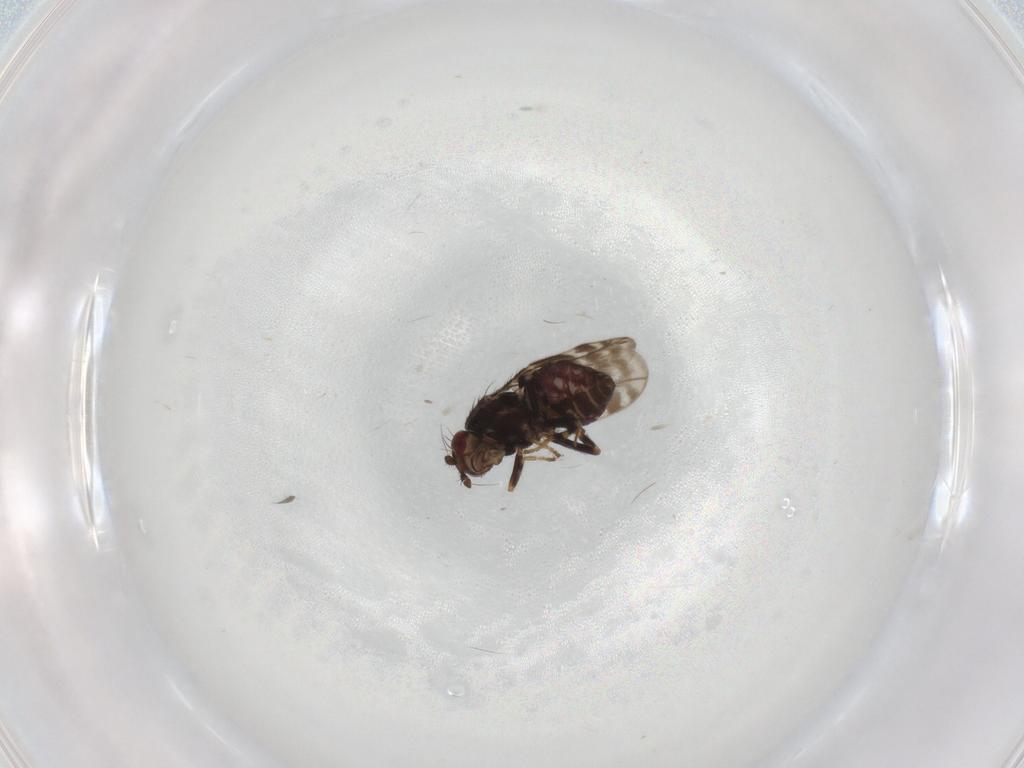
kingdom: Animalia
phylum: Arthropoda
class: Insecta
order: Diptera
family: Sphaeroceridae
